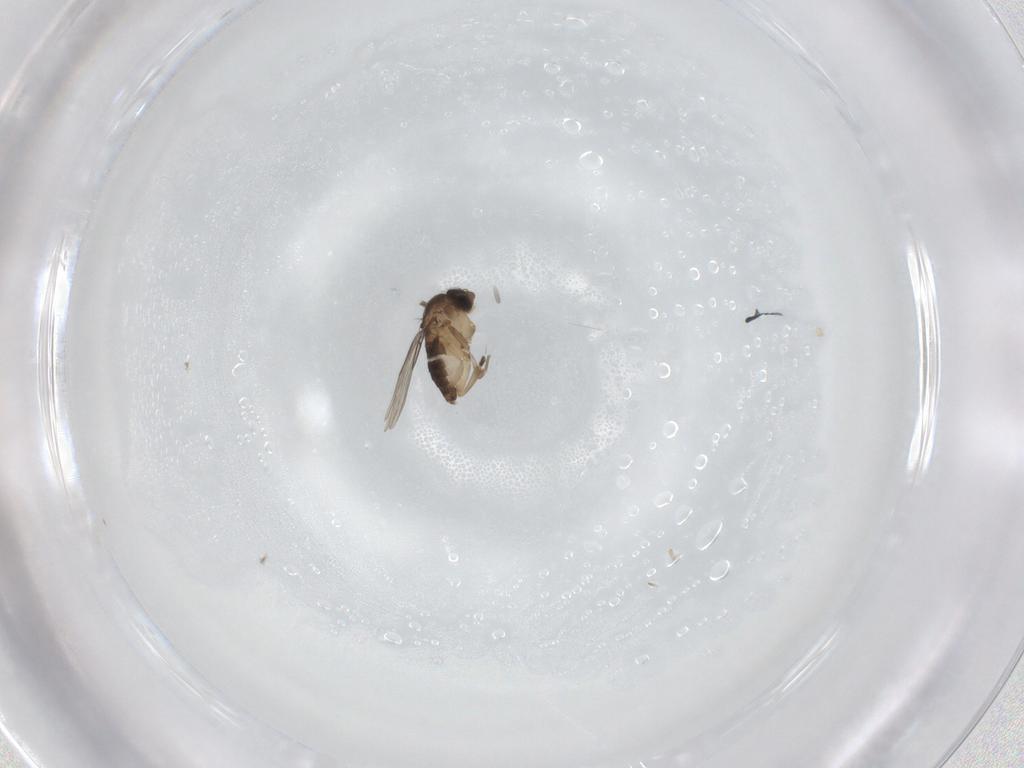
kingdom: Animalia
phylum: Arthropoda
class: Insecta
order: Diptera
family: Phoridae
